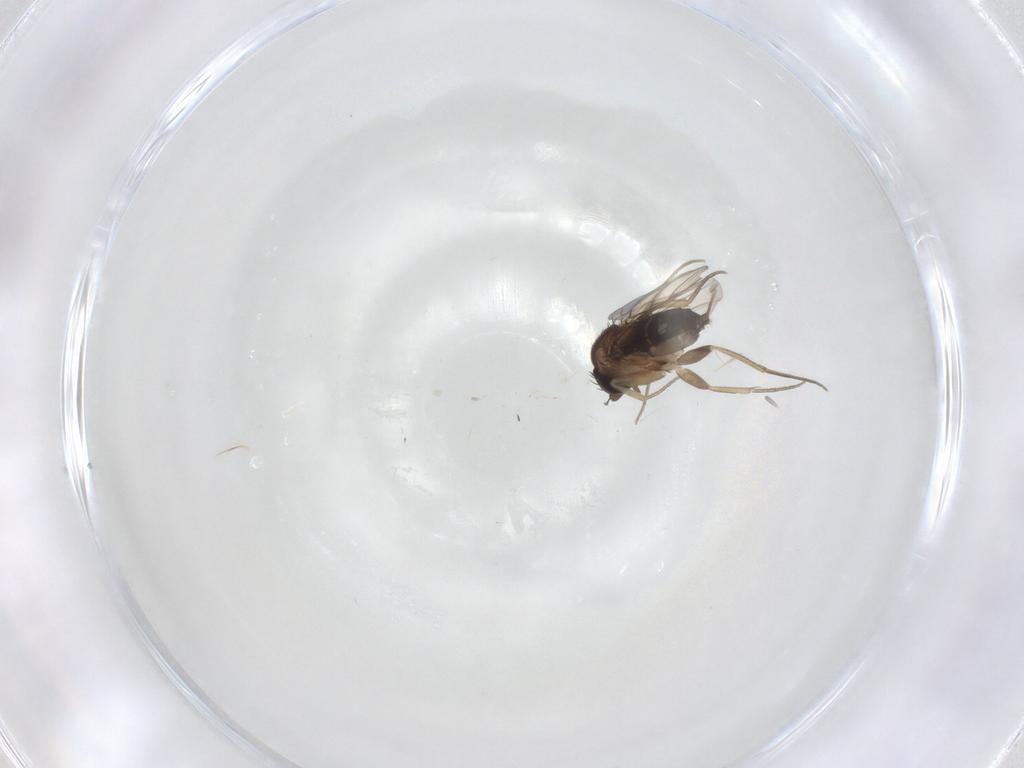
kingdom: Animalia
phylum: Arthropoda
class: Insecta
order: Diptera
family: Phoridae
